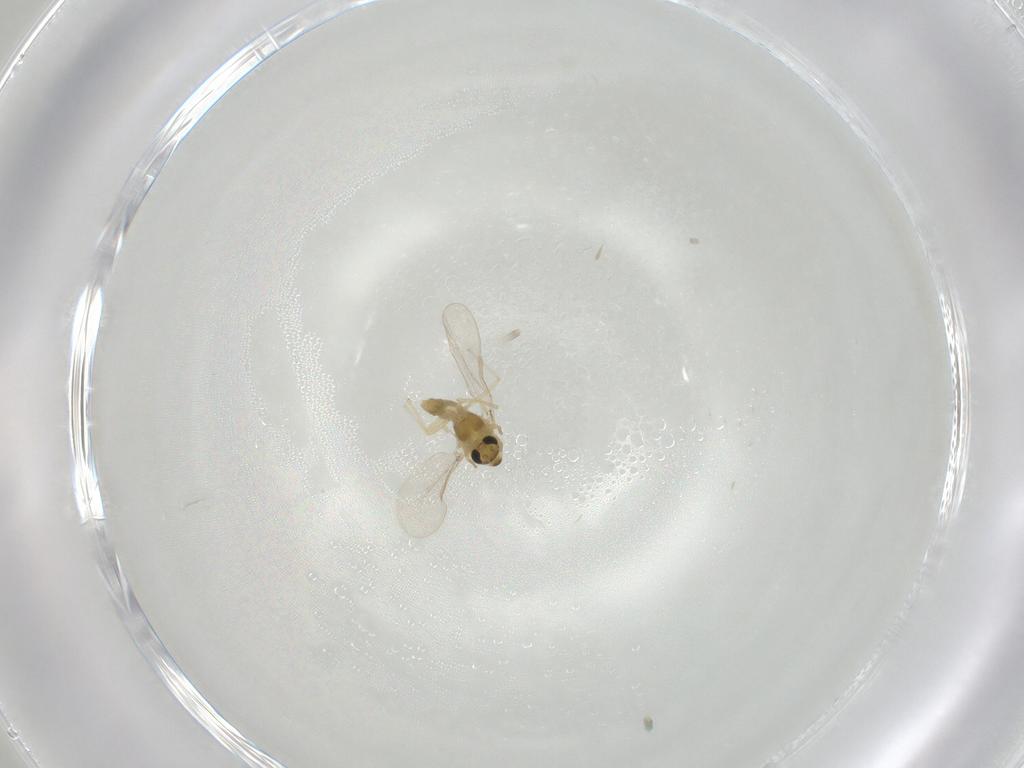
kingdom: Animalia
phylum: Arthropoda
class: Insecta
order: Diptera
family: Chironomidae
